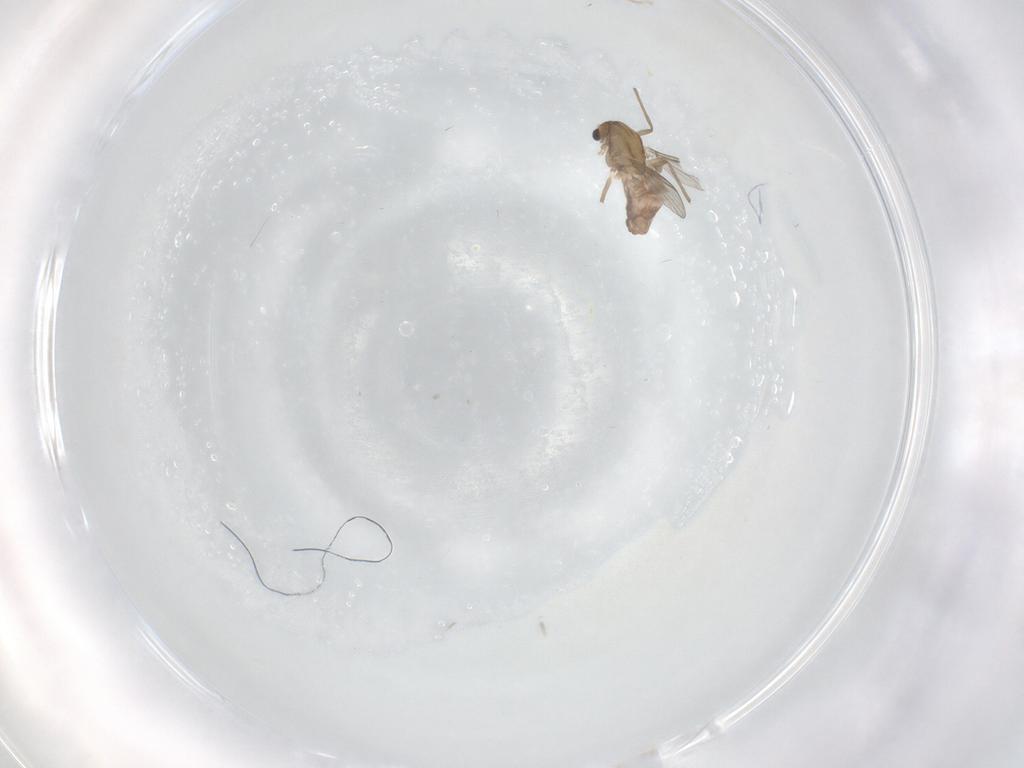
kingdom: Animalia
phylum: Arthropoda
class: Insecta
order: Diptera
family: Chironomidae
